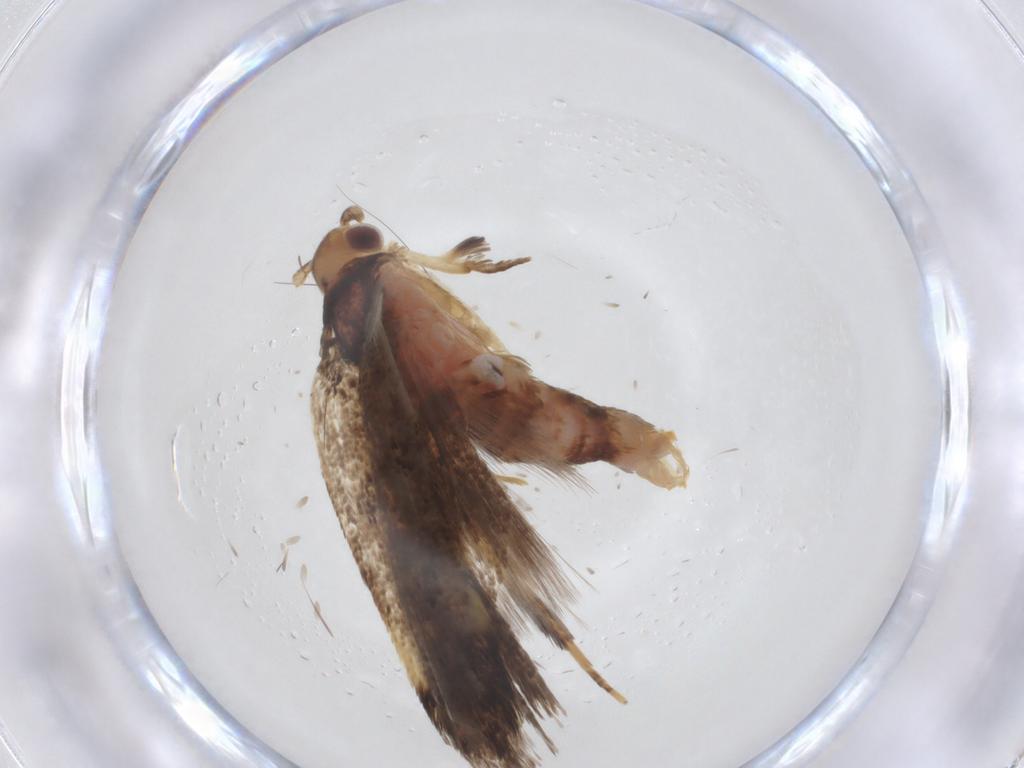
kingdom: Animalia
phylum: Arthropoda
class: Insecta
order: Lepidoptera
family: Lecithoceridae
